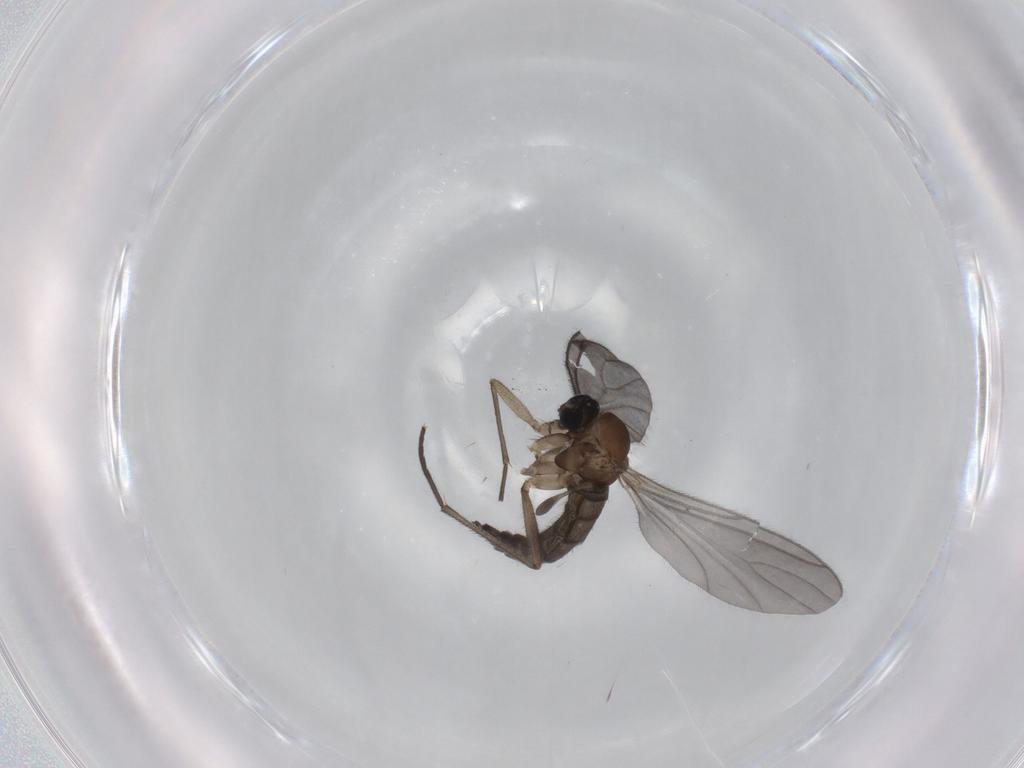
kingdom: Animalia
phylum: Arthropoda
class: Insecta
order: Diptera
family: Sciaridae
